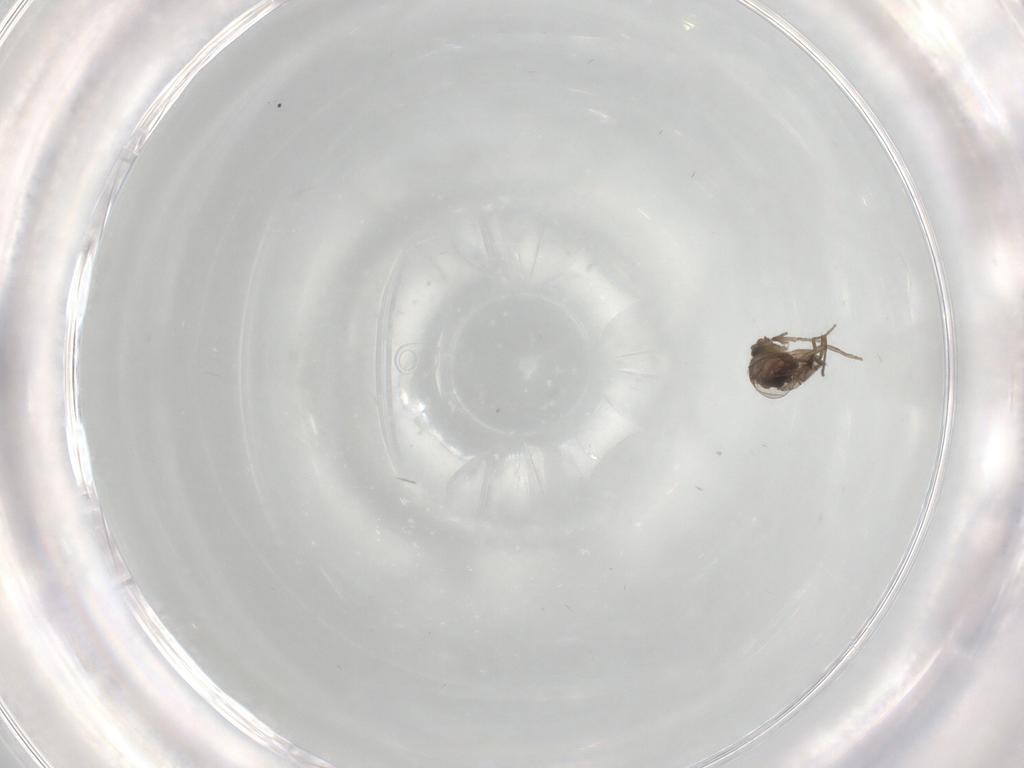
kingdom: Animalia
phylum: Arthropoda
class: Insecta
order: Diptera
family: Phoridae
